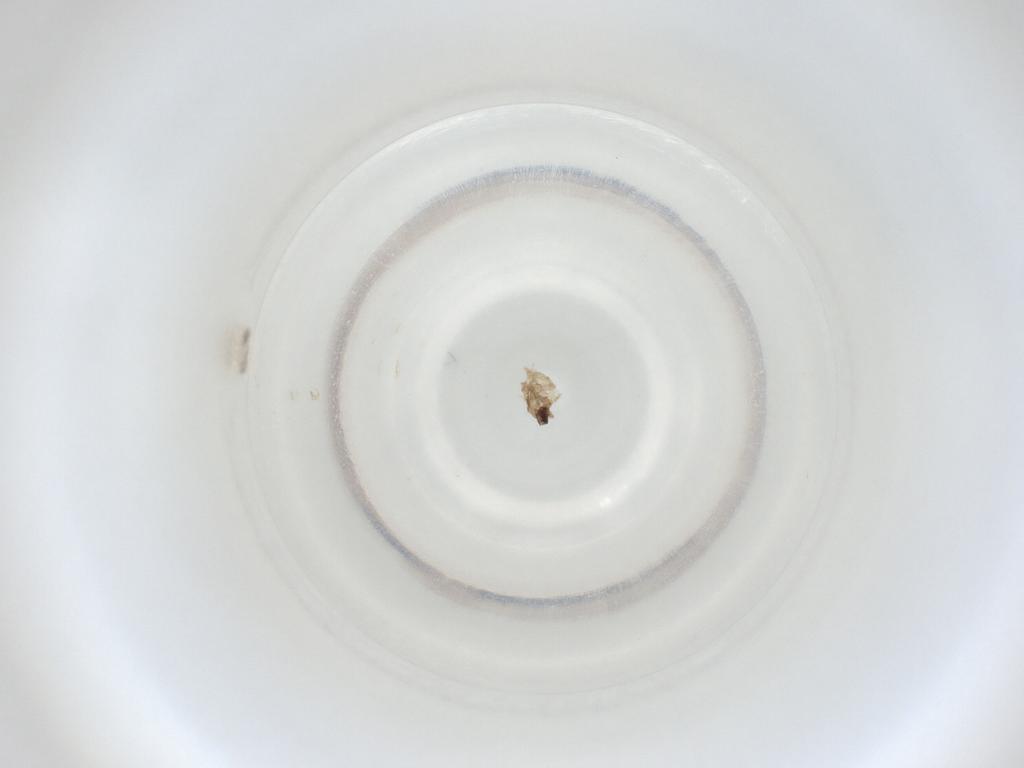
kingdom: Animalia
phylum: Arthropoda
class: Insecta
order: Diptera
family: Cecidomyiidae
